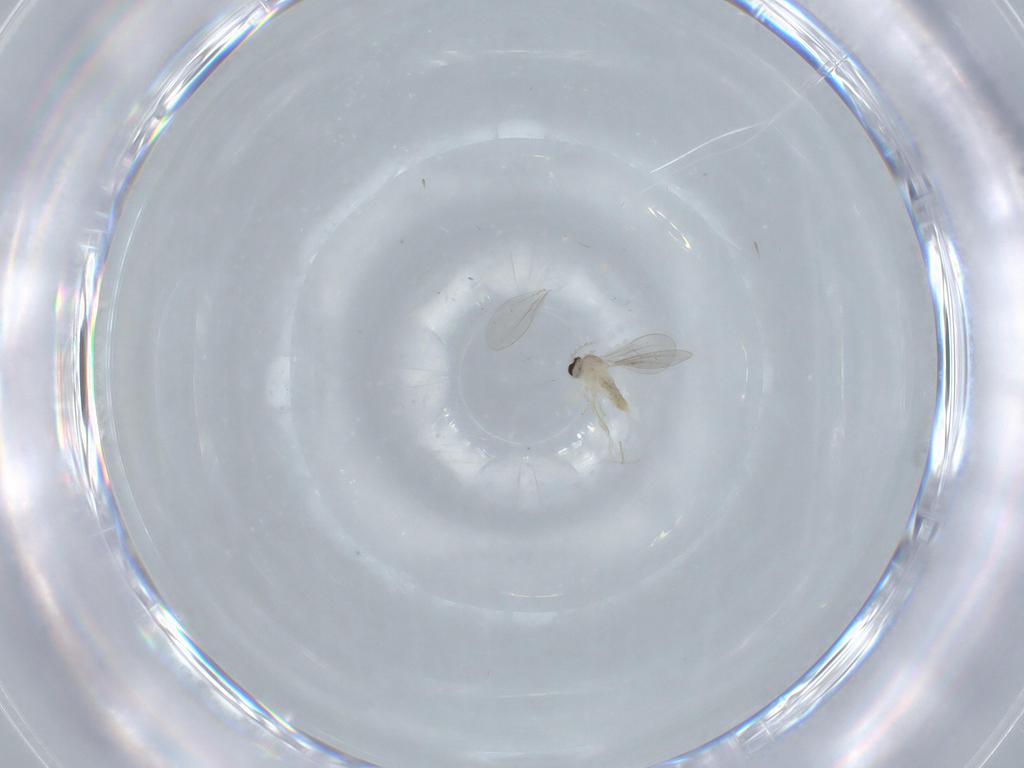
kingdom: Animalia
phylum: Arthropoda
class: Insecta
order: Diptera
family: Chironomidae
